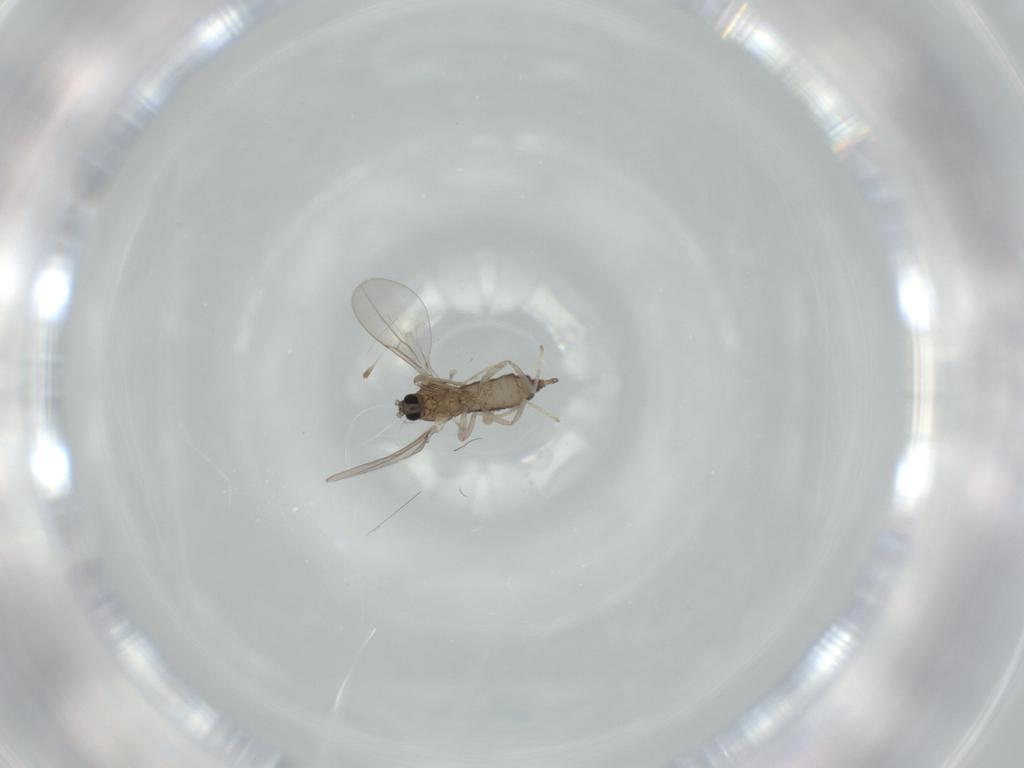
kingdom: Animalia
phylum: Arthropoda
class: Insecta
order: Diptera
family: Cecidomyiidae
